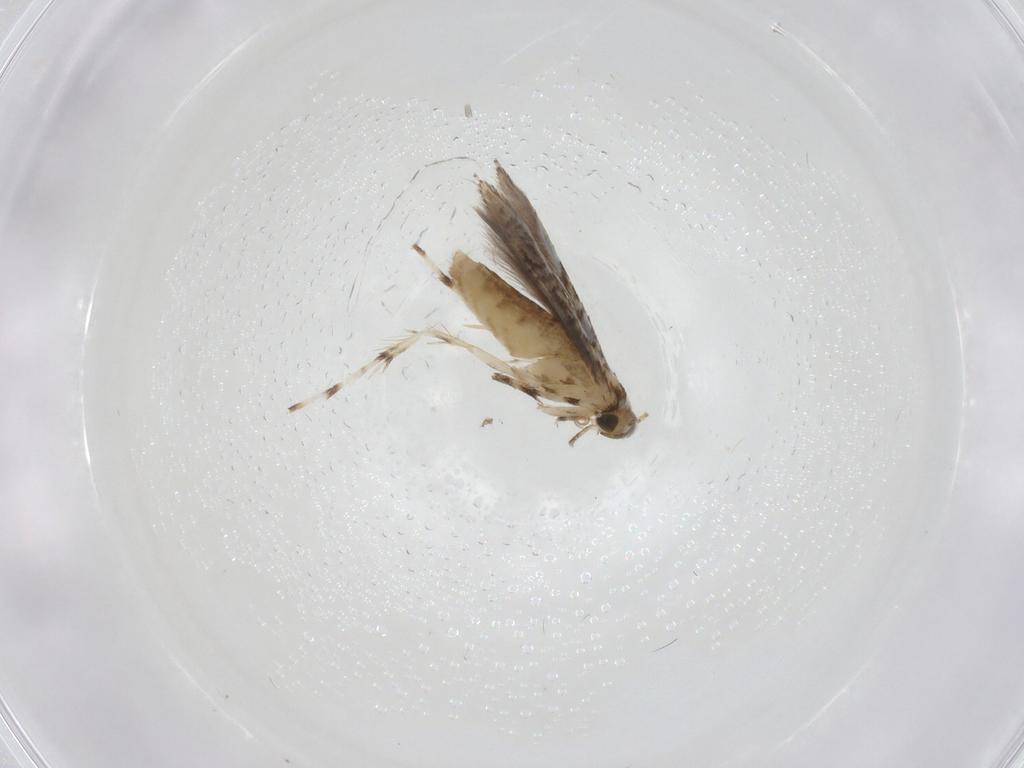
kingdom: Animalia
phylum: Arthropoda
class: Insecta
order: Lepidoptera
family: Gracillariidae
